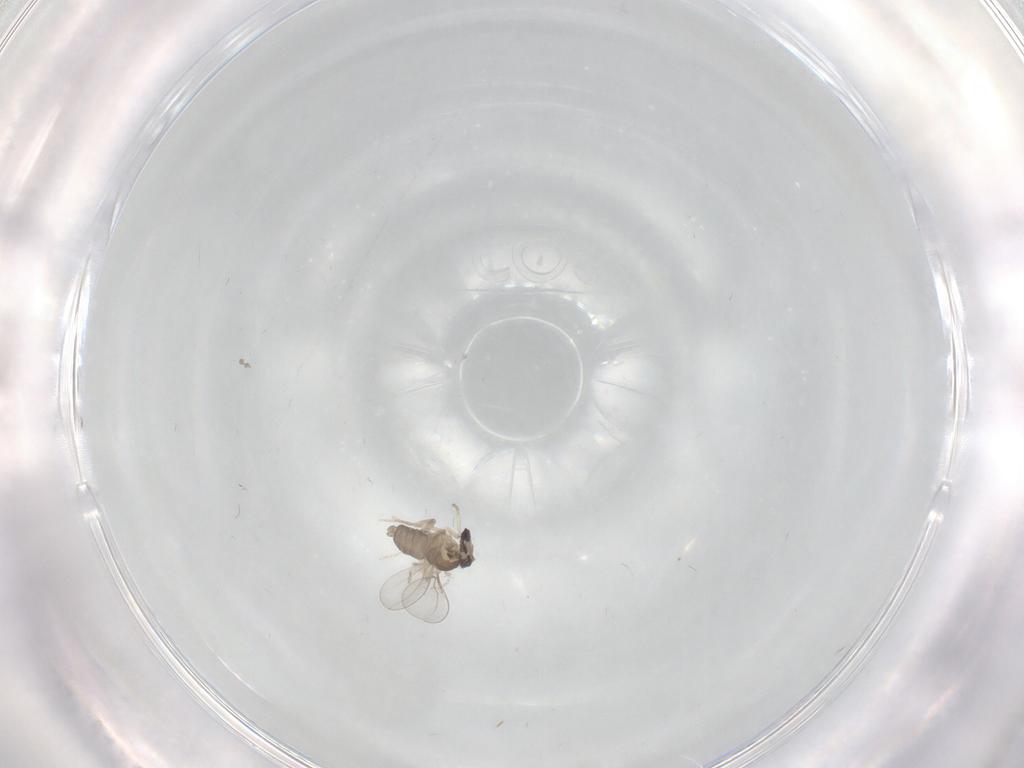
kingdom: Animalia
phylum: Arthropoda
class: Insecta
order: Diptera
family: Cecidomyiidae
